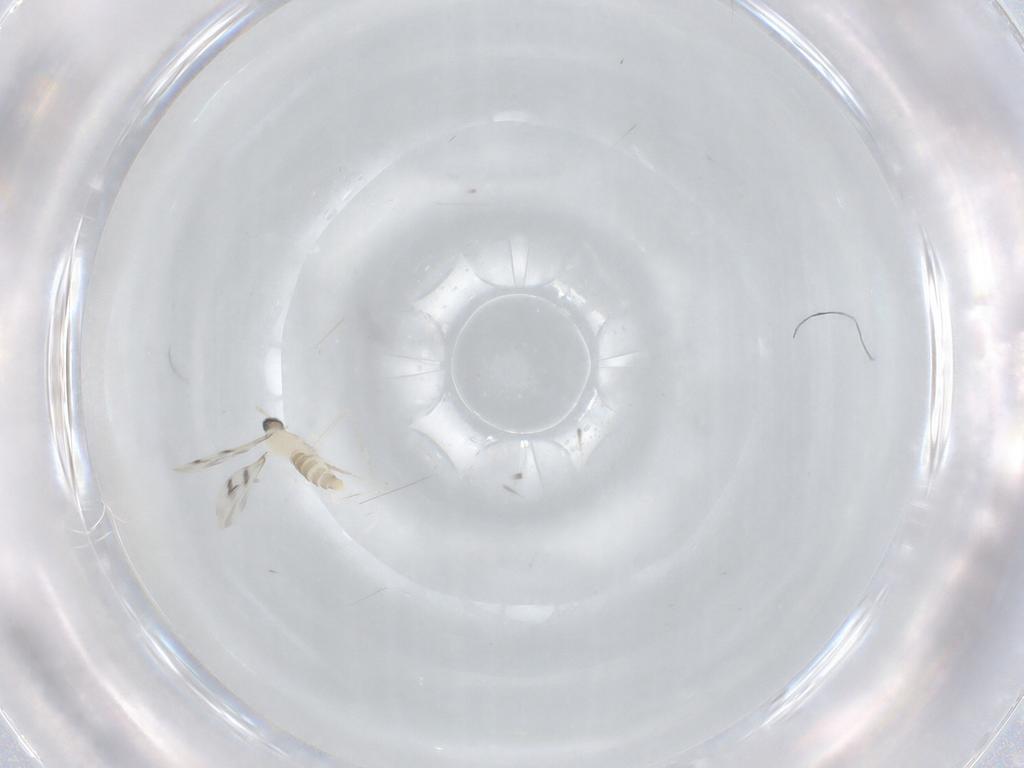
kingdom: Animalia
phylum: Arthropoda
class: Insecta
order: Diptera
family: Cecidomyiidae
